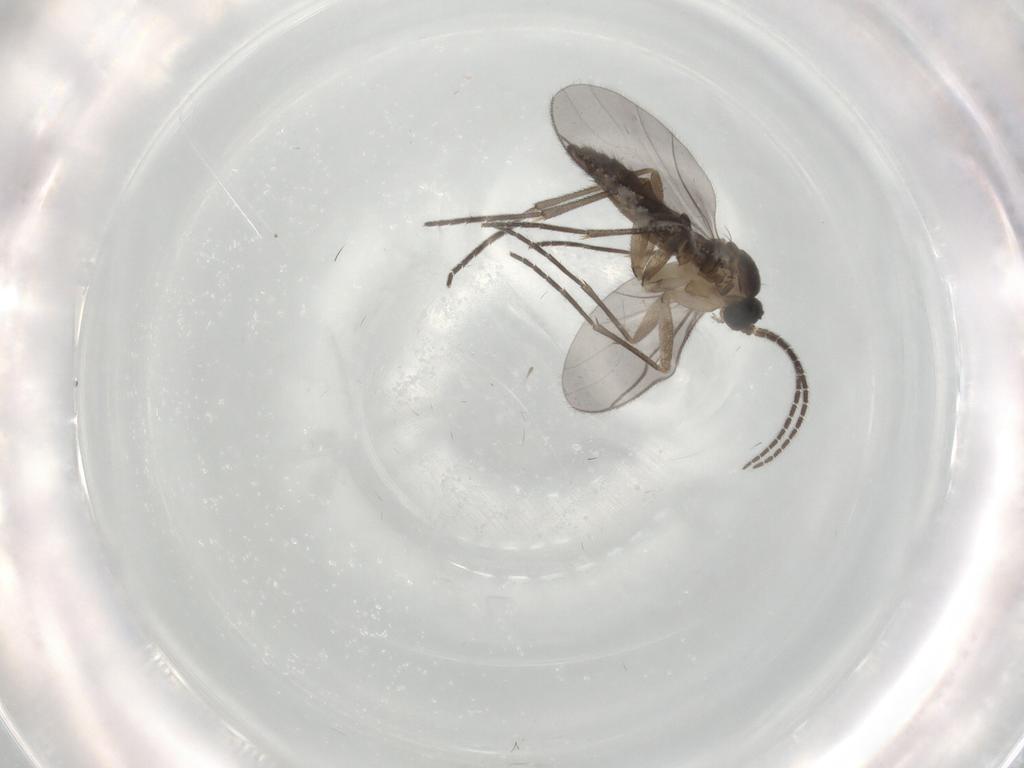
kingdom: Animalia
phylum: Arthropoda
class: Insecta
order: Diptera
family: Sciaridae
